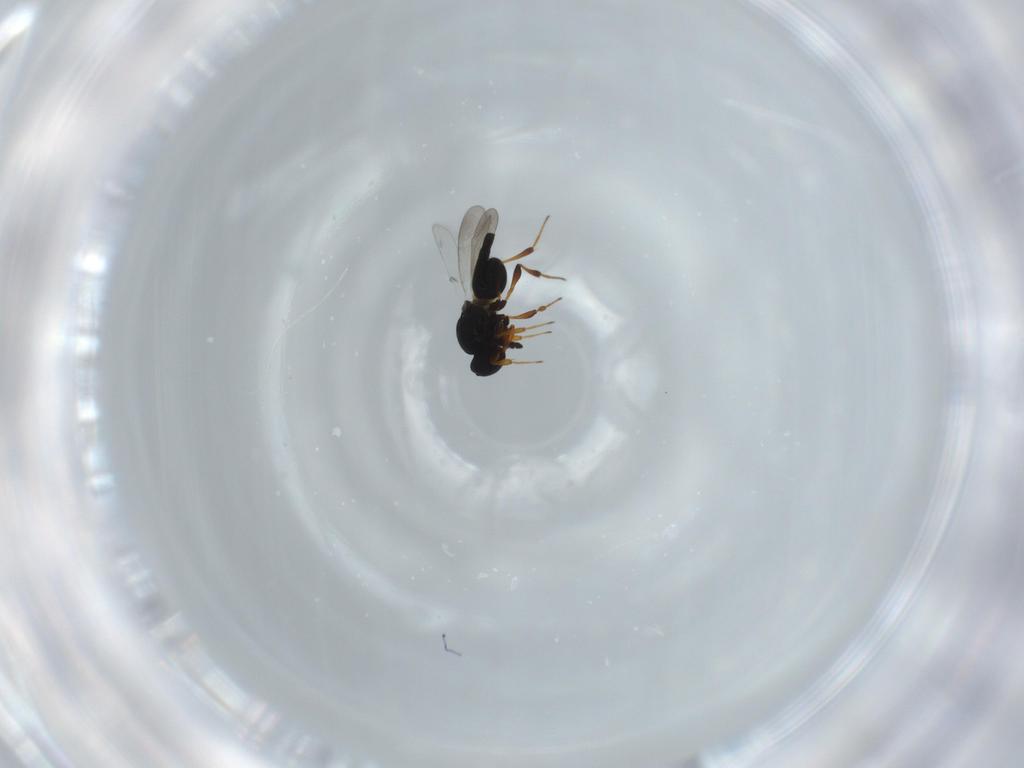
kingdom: Animalia
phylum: Arthropoda
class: Insecta
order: Hymenoptera
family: Platygastridae
